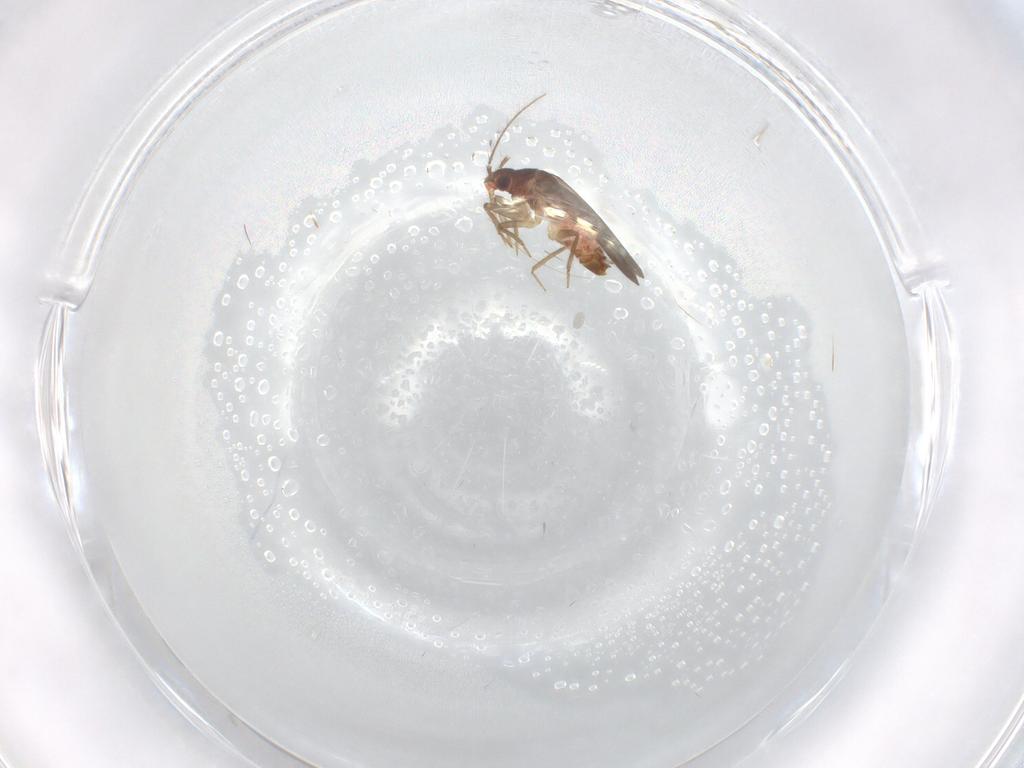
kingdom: Animalia
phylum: Arthropoda
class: Insecta
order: Hemiptera
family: Ceratocombidae
